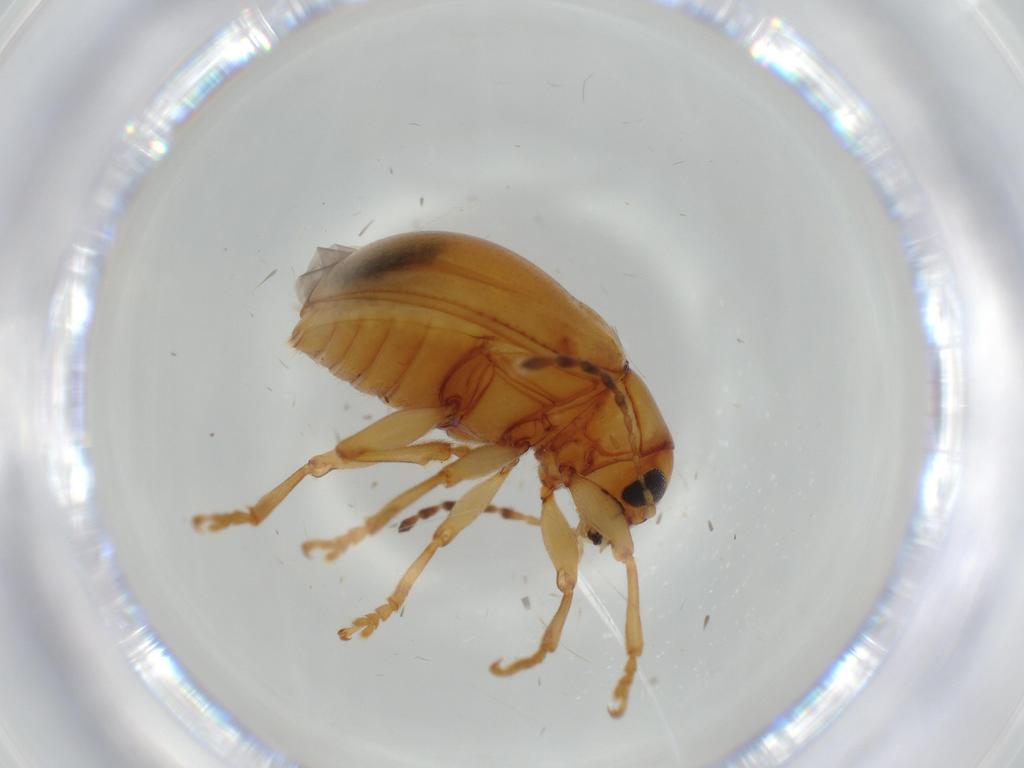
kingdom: Animalia
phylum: Arthropoda
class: Insecta
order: Coleoptera
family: Chrysomelidae
